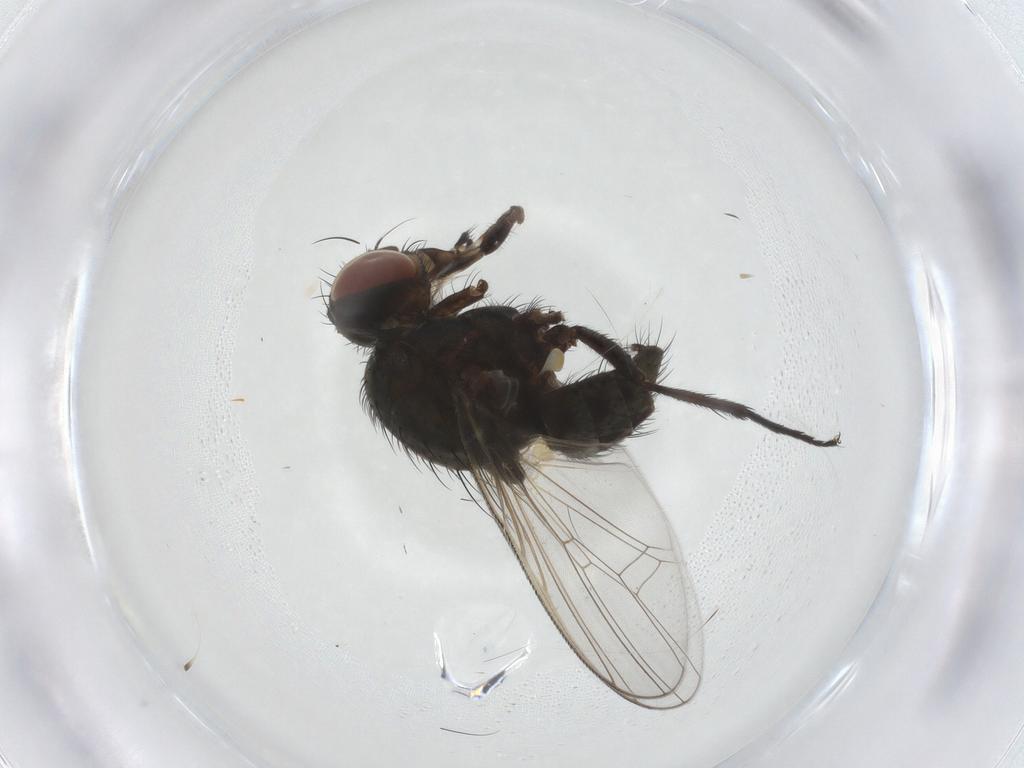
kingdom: Animalia
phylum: Arthropoda
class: Insecta
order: Diptera
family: Anthomyiidae
